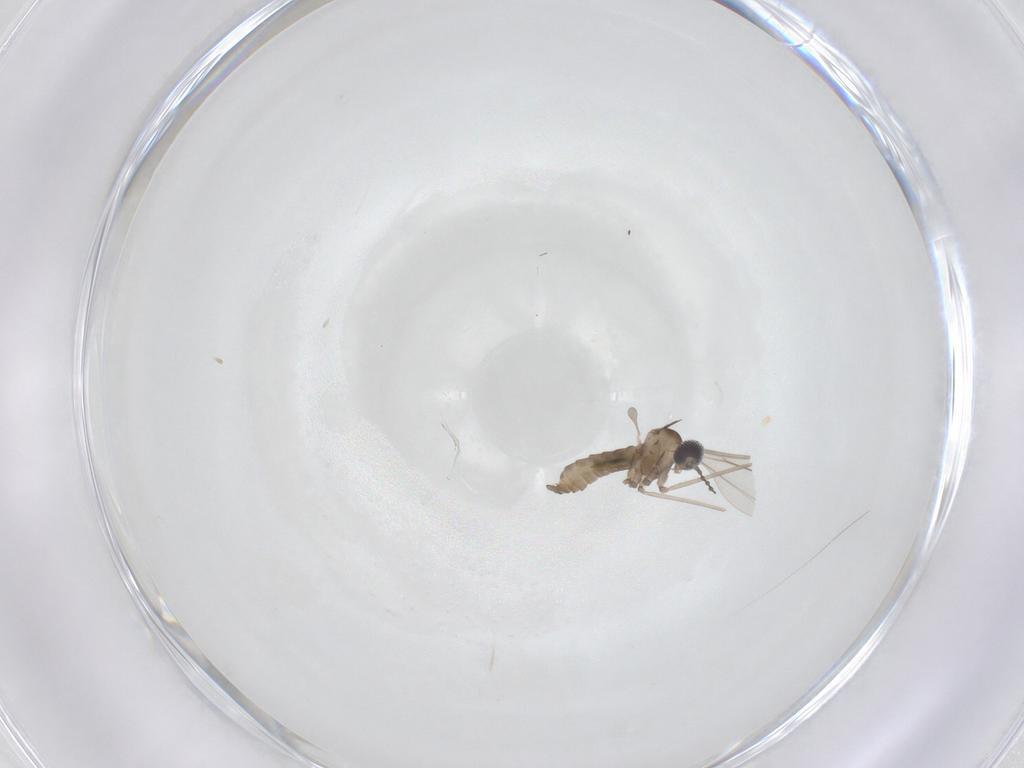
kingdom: Animalia
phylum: Arthropoda
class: Insecta
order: Diptera
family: Cecidomyiidae
